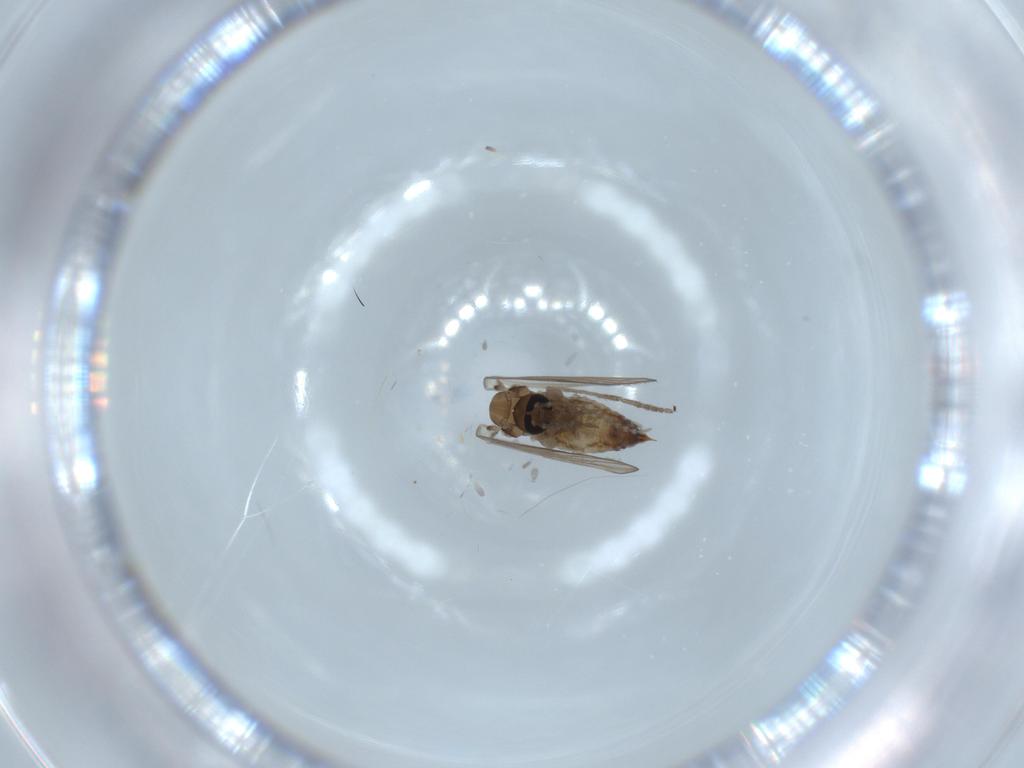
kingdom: Animalia
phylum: Arthropoda
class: Insecta
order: Diptera
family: Psychodidae
